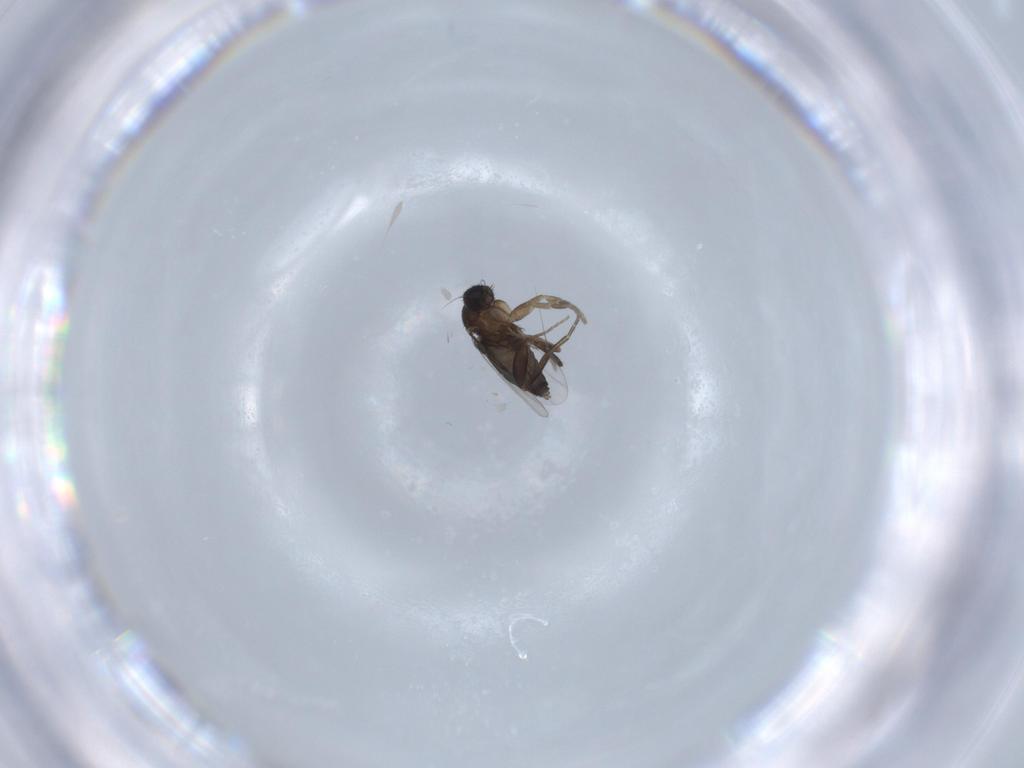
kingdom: Animalia
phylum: Arthropoda
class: Insecta
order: Diptera
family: Phoridae
